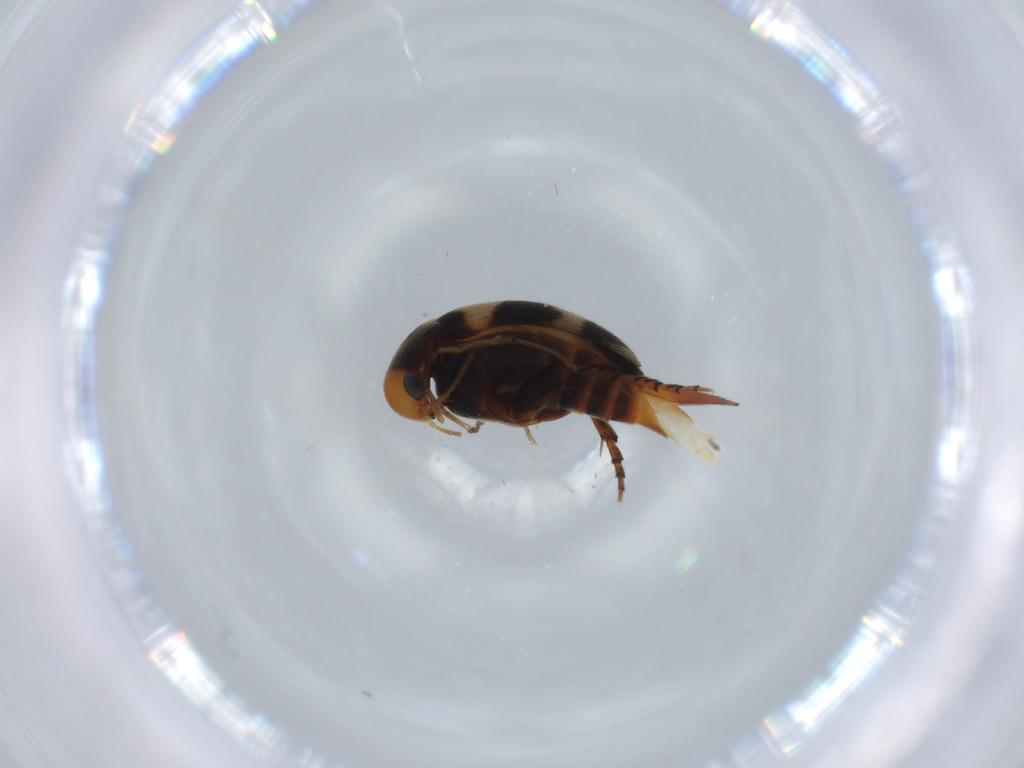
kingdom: Animalia
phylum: Arthropoda
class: Insecta
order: Coleoptera
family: Mordellidae
